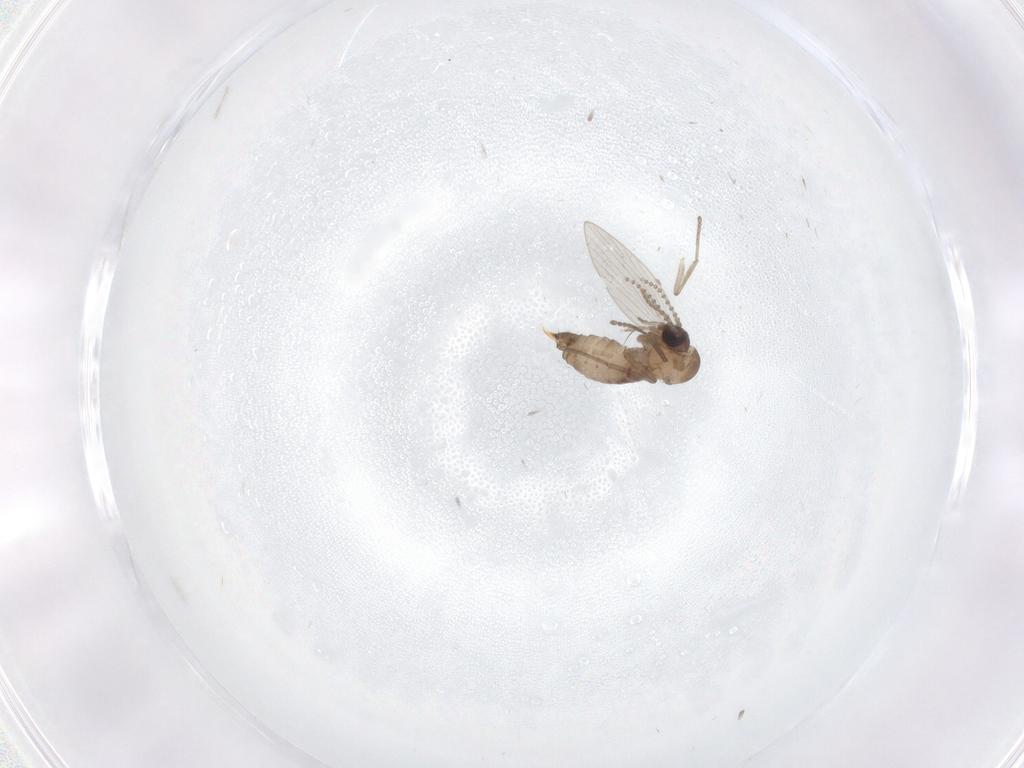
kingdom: Animalia
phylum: Arthropoda
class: Insecta
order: Diptera
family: Psychodidae
